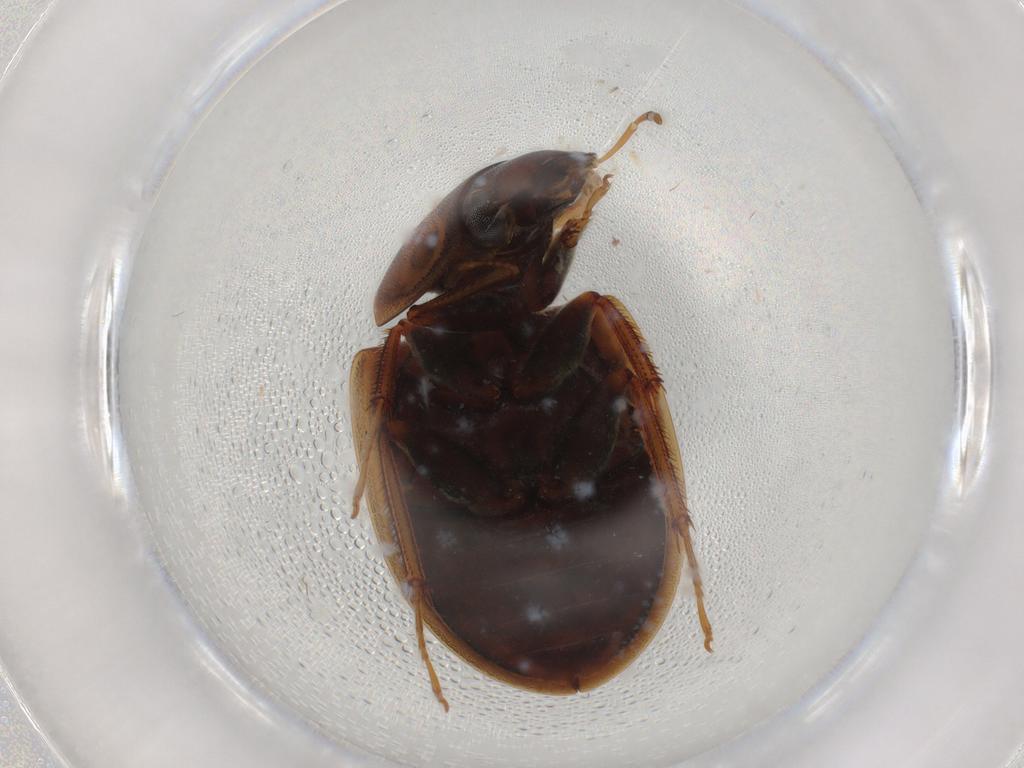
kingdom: Animalia
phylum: Arthropoda
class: Insecta
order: Coleoptera
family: Hydrophilidae
